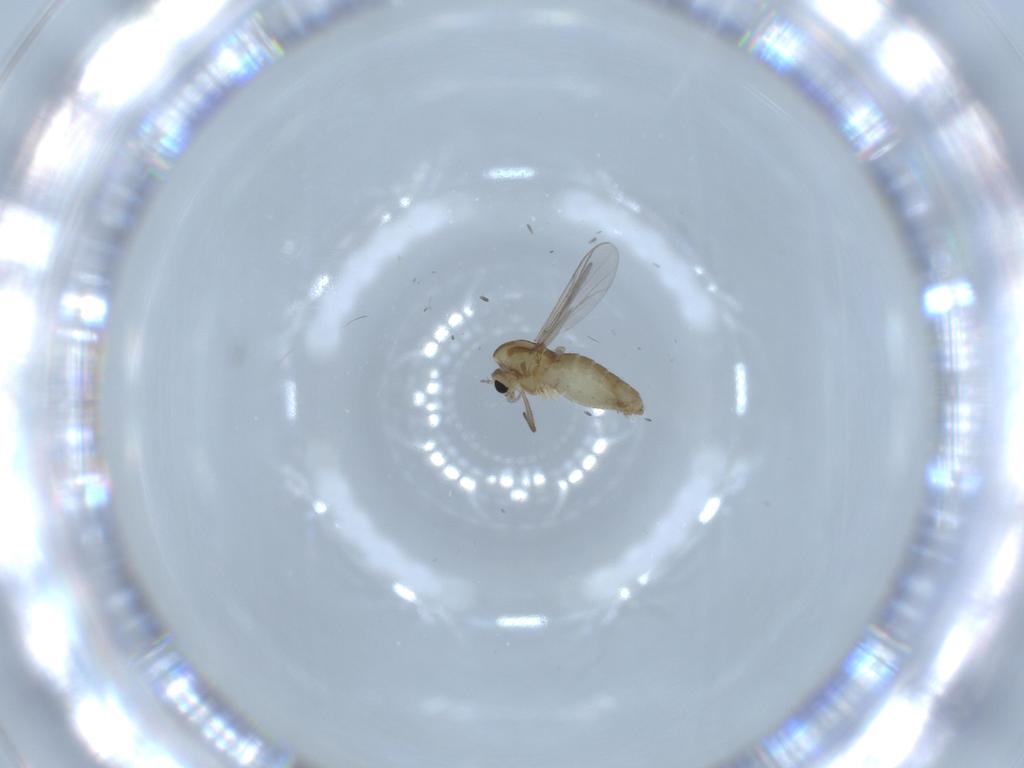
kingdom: Animalia
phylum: Arthropoda
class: Insecta
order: Diptera
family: Chironomidae
